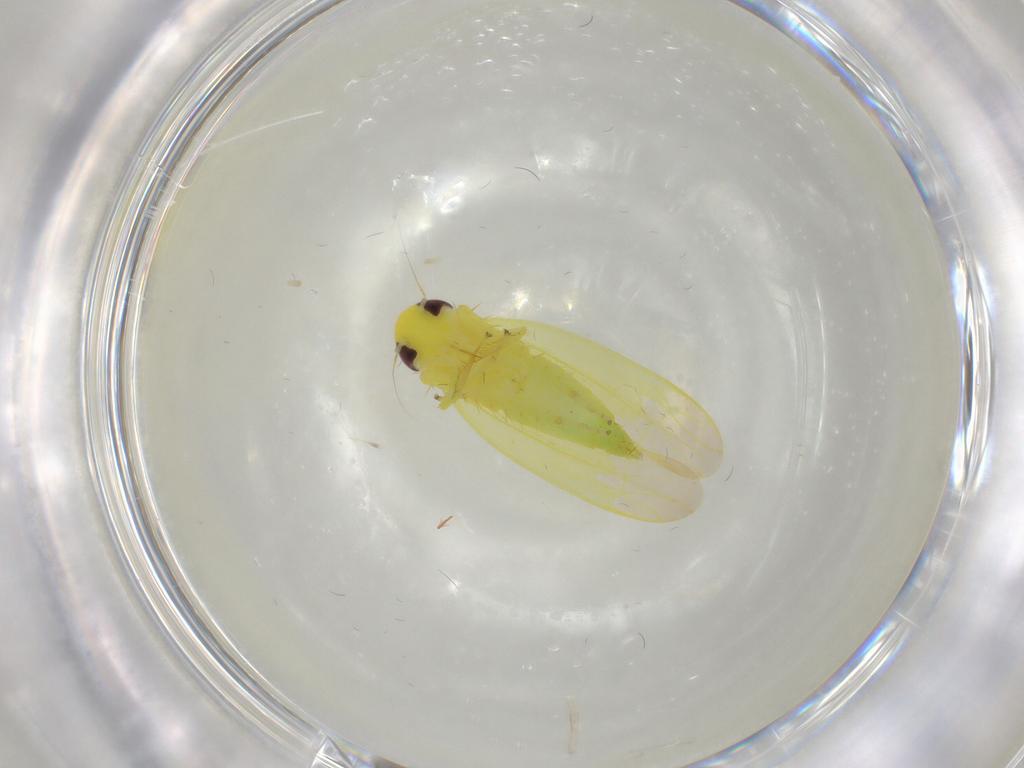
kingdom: Animalia
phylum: Arthropoda
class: Insecta
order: Hemiptera
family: Cicadellidae
